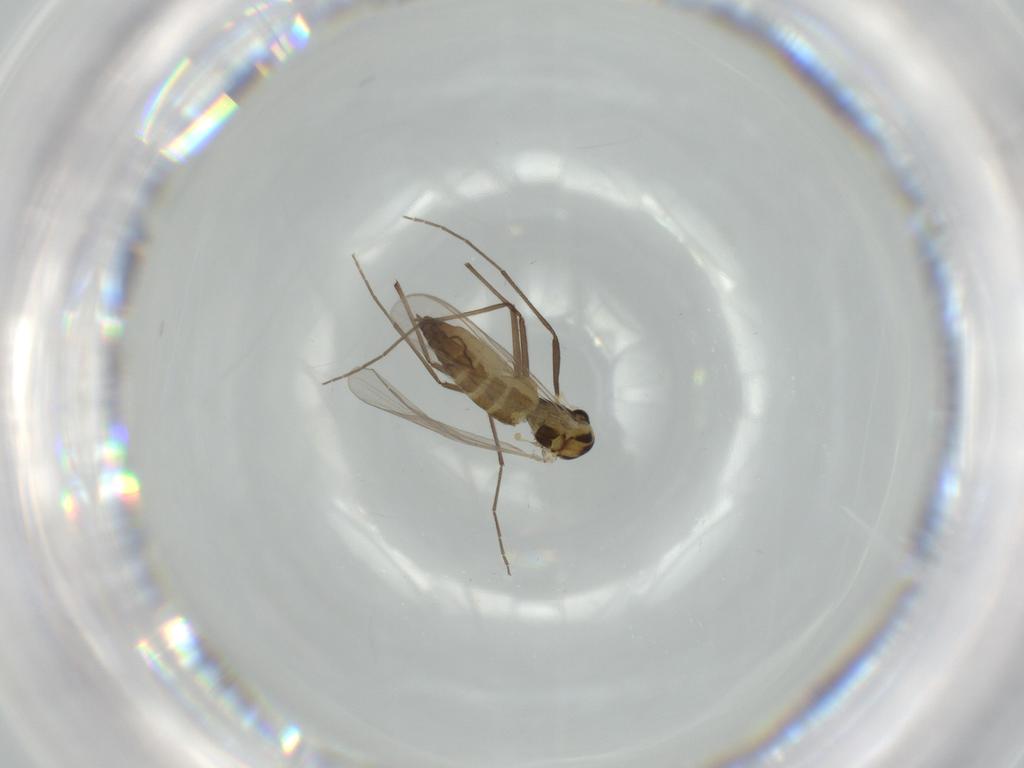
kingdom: Animalia
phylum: Arthropoda
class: Insecta
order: Diptera
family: Chironomidae
